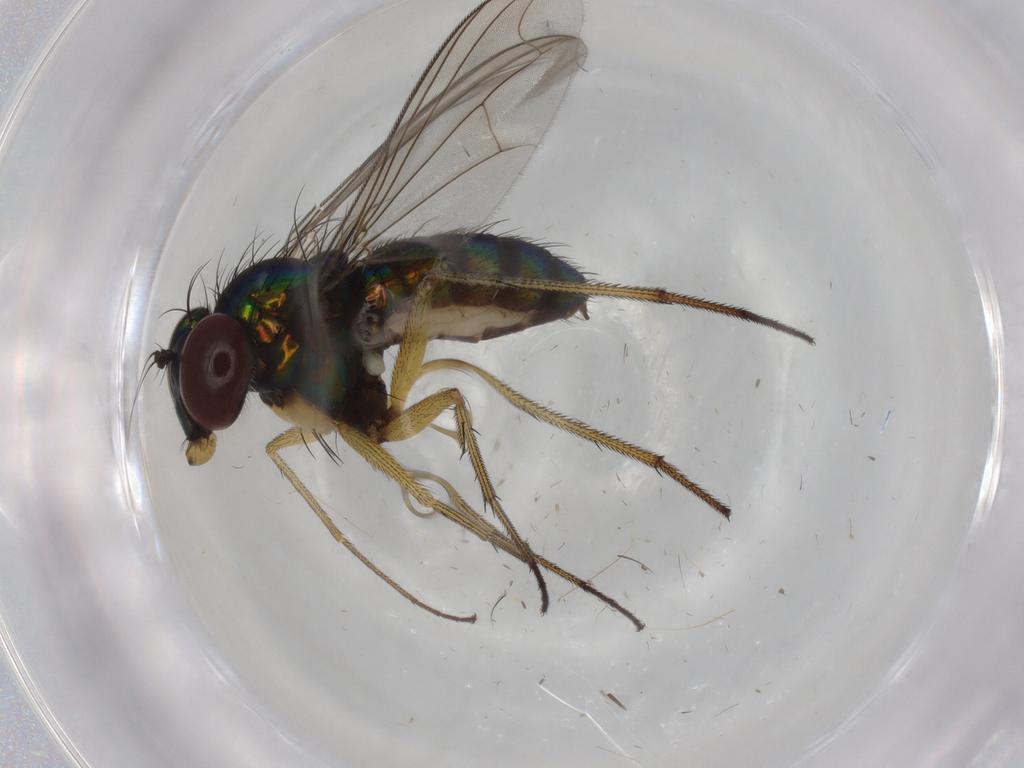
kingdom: Animalia
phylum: Arthropoda
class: Insecta
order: Diptera
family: Dolichopodidae
